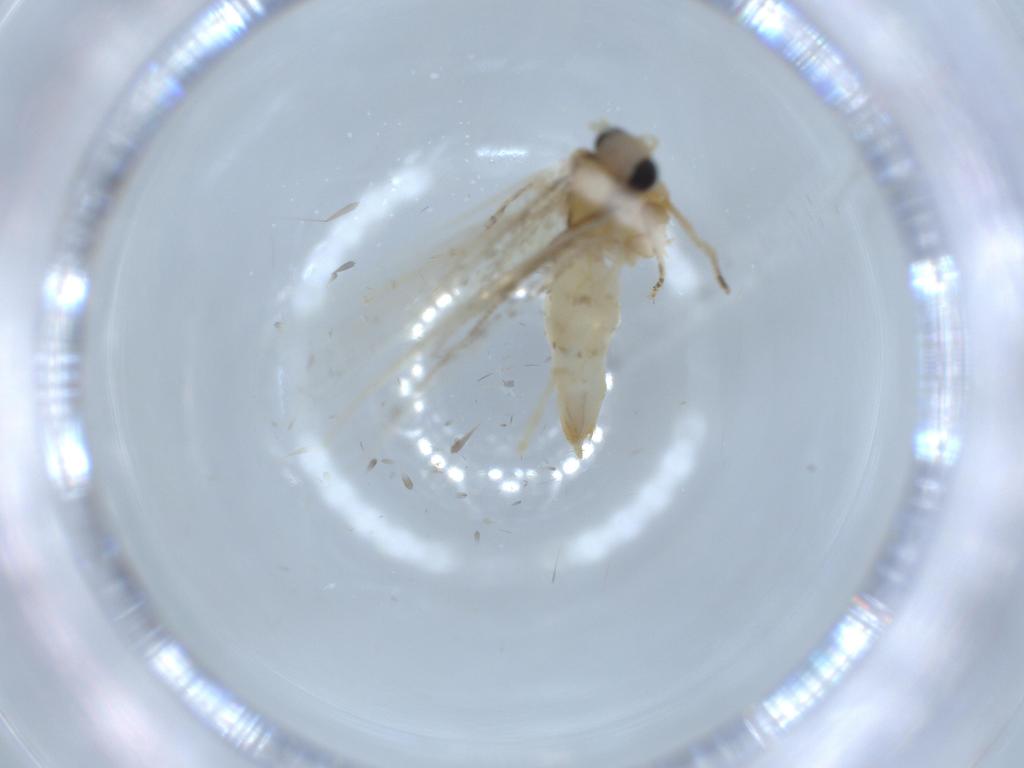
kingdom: Animalia
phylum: Arthropoda
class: Insecta
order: Lepidoptera
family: Tineidae
